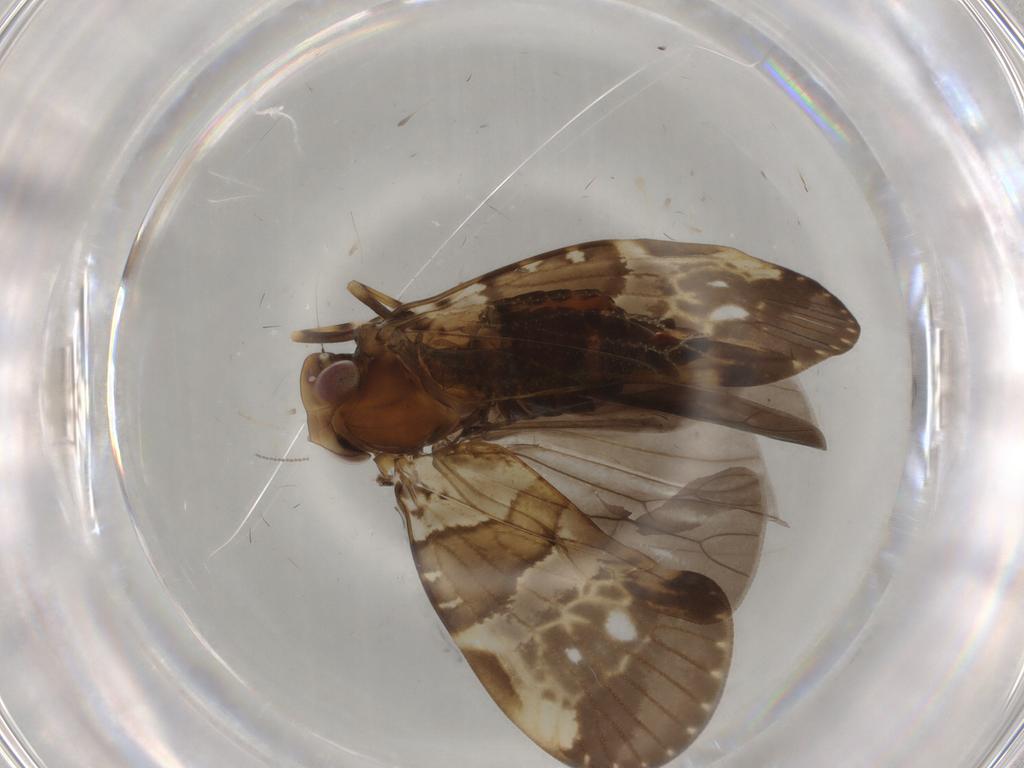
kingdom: Animalia
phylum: Arthropoda
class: Insecta
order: Hemiptera
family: Cixiidae
